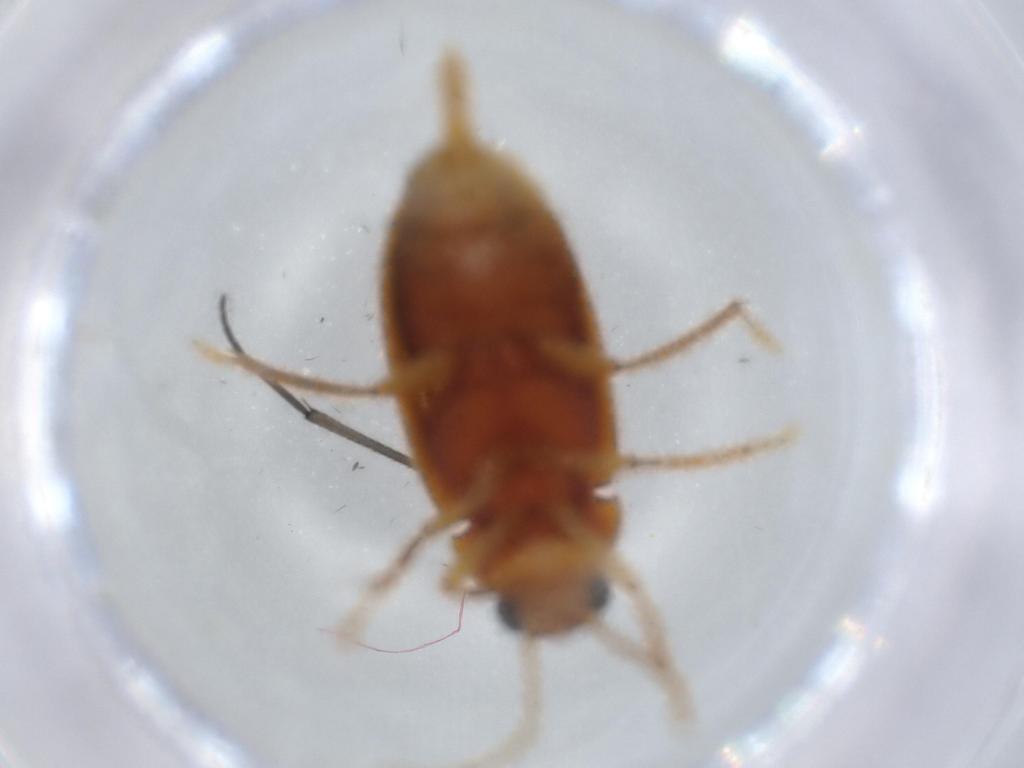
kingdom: Animalia
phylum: Arthropoda
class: Insecta
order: Coleoptera
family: Ptilodactylidae
